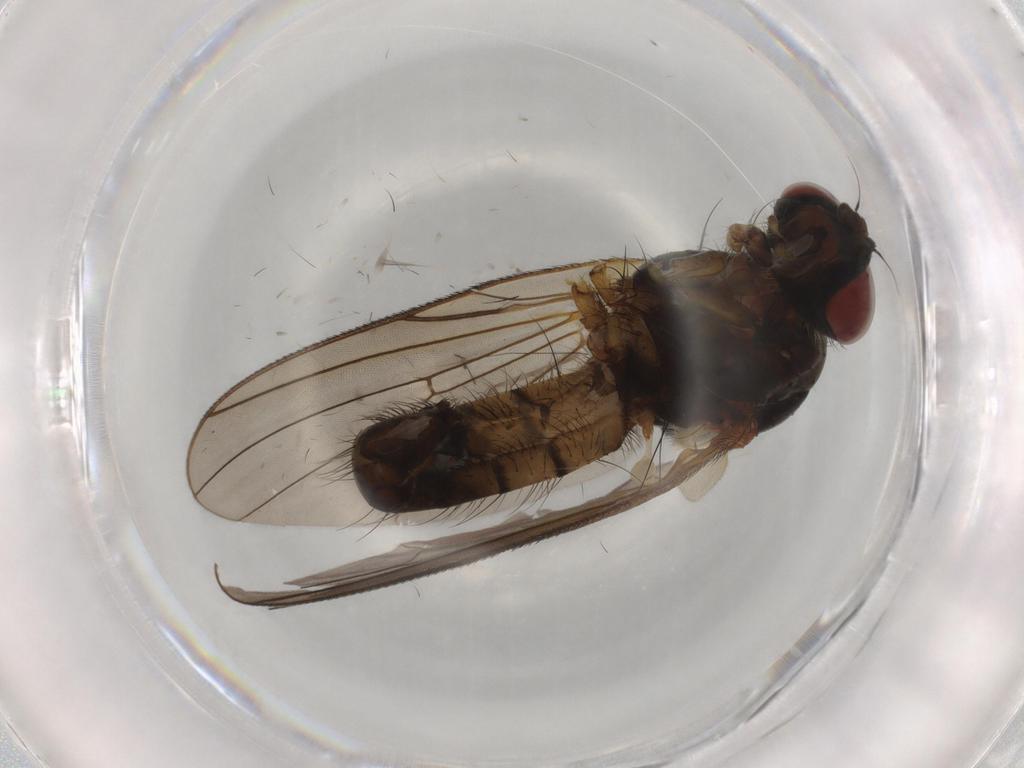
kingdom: Animalia
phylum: Arthropoda
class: Insecta
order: Diptera
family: Anthomyiidae
